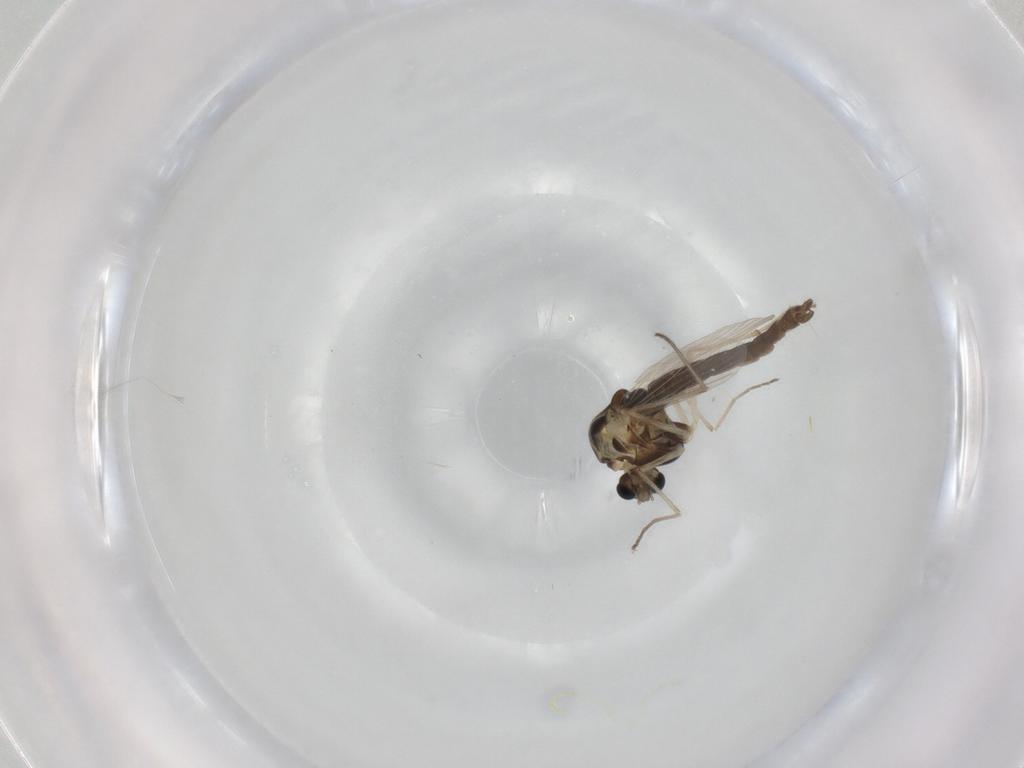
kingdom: Animalia
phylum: Arthropoda
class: Insecta
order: Diptera
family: Chironomidae
